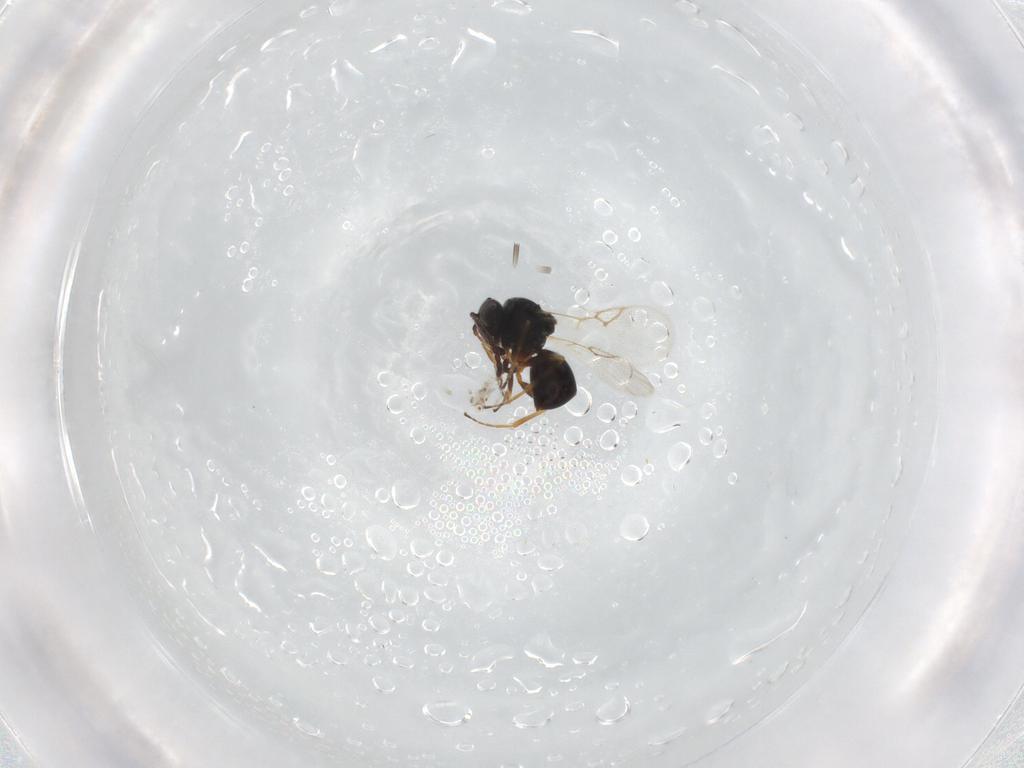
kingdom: Animalia
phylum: Arthropoda
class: Insecta
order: Hymenoptera
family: Figitidae
